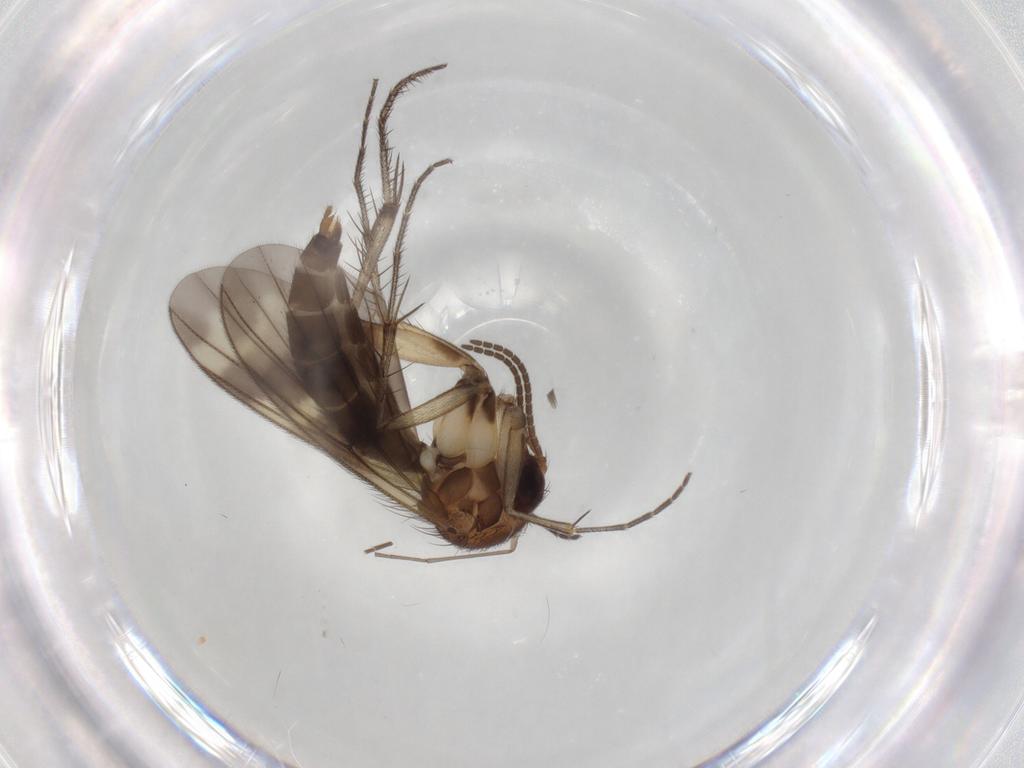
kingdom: Animalia
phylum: Arthropoda
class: Insecta
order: Diptera
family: Mycetophilidae
